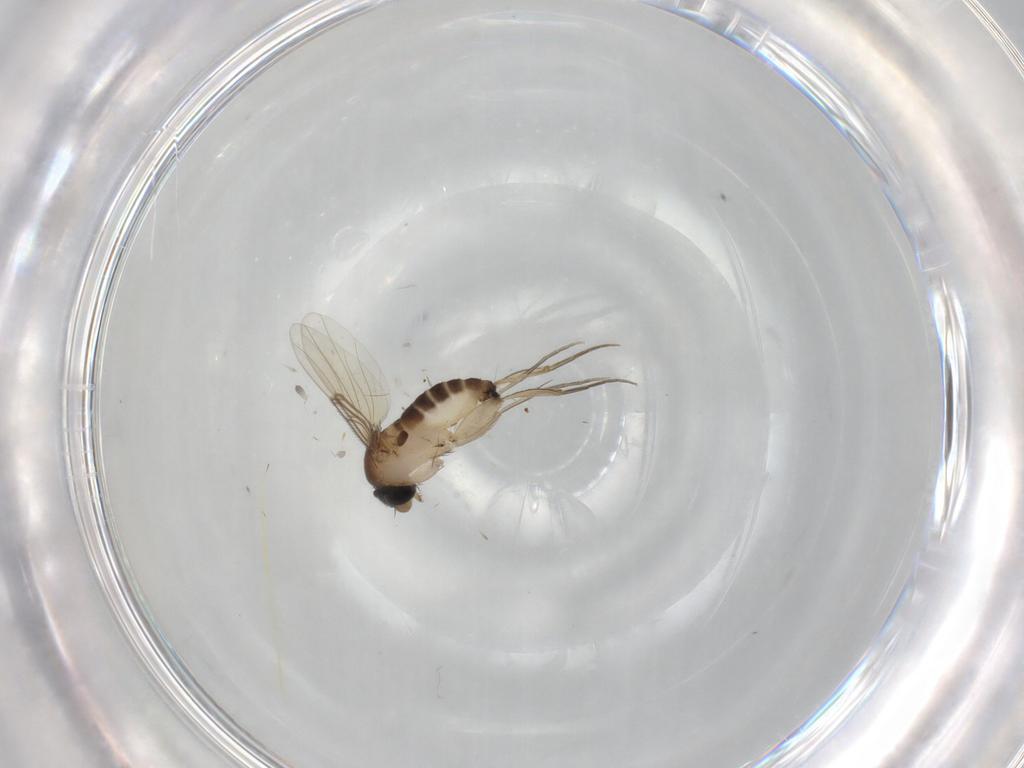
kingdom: Animalia
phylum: Arthropoda
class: Insecta
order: Diptera
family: Phoridae
